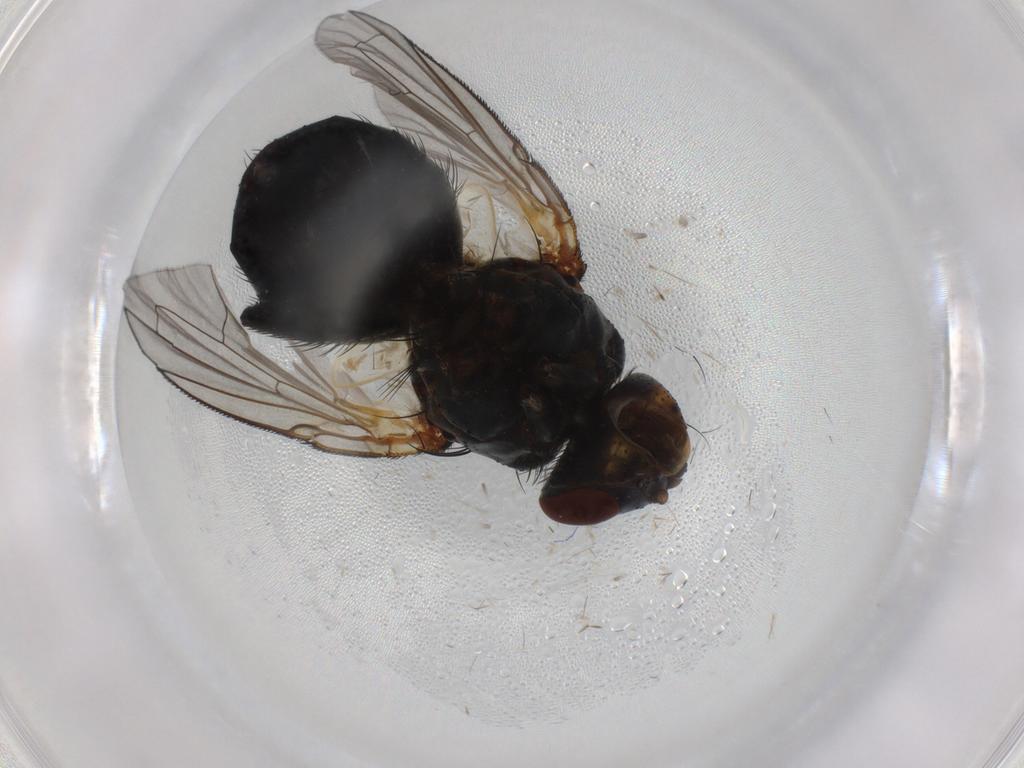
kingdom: Animalia
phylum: Arthropoda
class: Insecta
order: Diptera
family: Tachinidae
